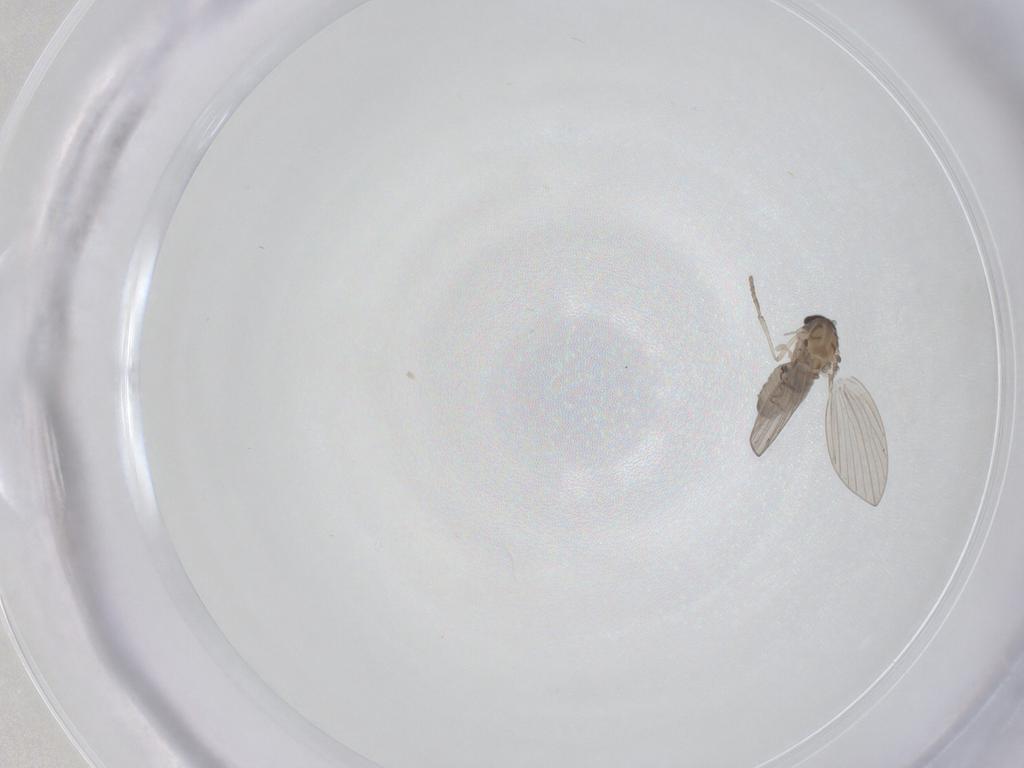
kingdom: Animalia
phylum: Arthropoda
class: Insecta
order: Diptera
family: Psychodidae
